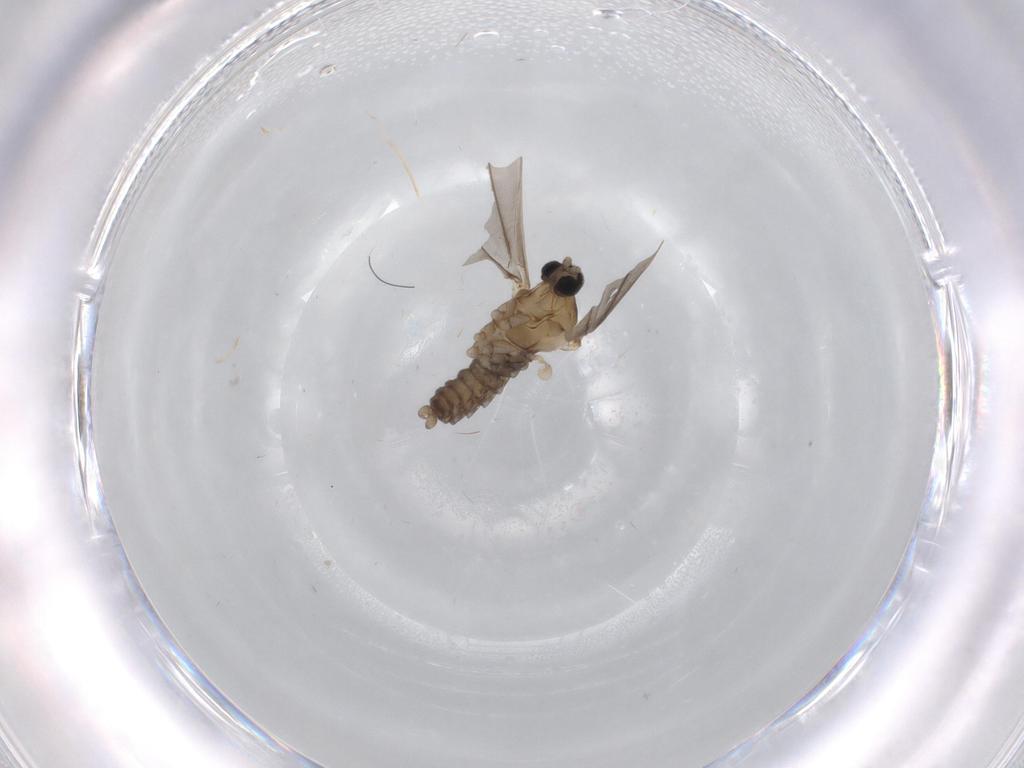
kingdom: Animalia
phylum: Arthropoda
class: Insecta
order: Diptera
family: Cecidomyiidae
